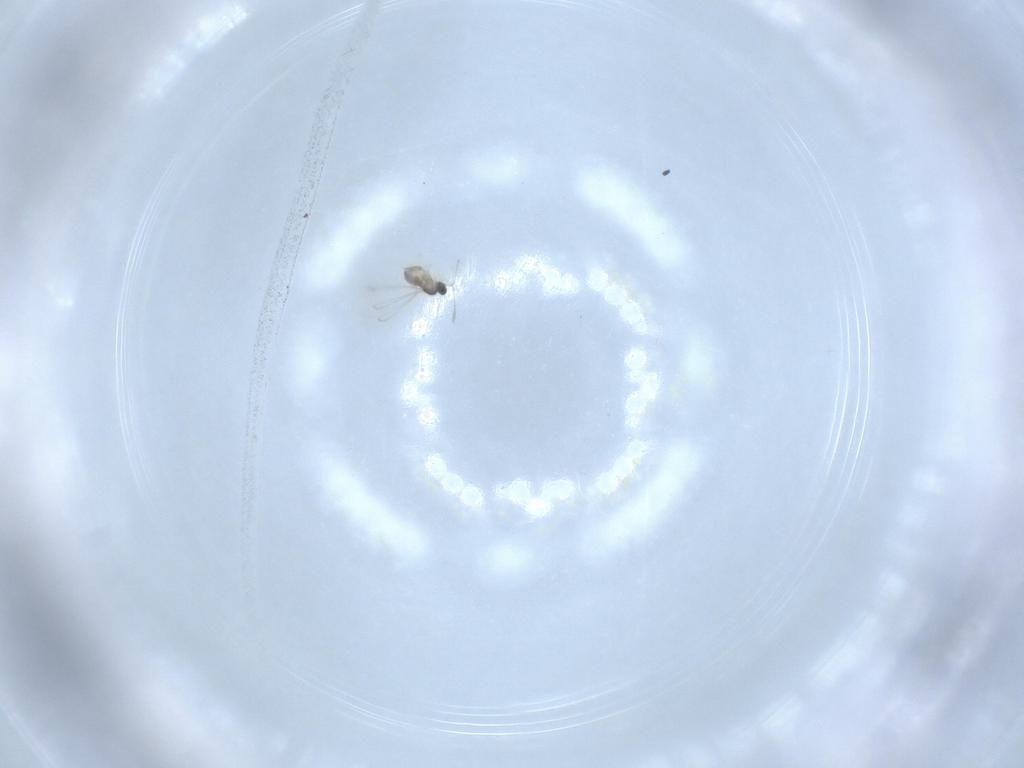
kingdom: Animalia
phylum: Arthropoda
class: Insecta
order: Hymenoptera
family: Mymaridae
